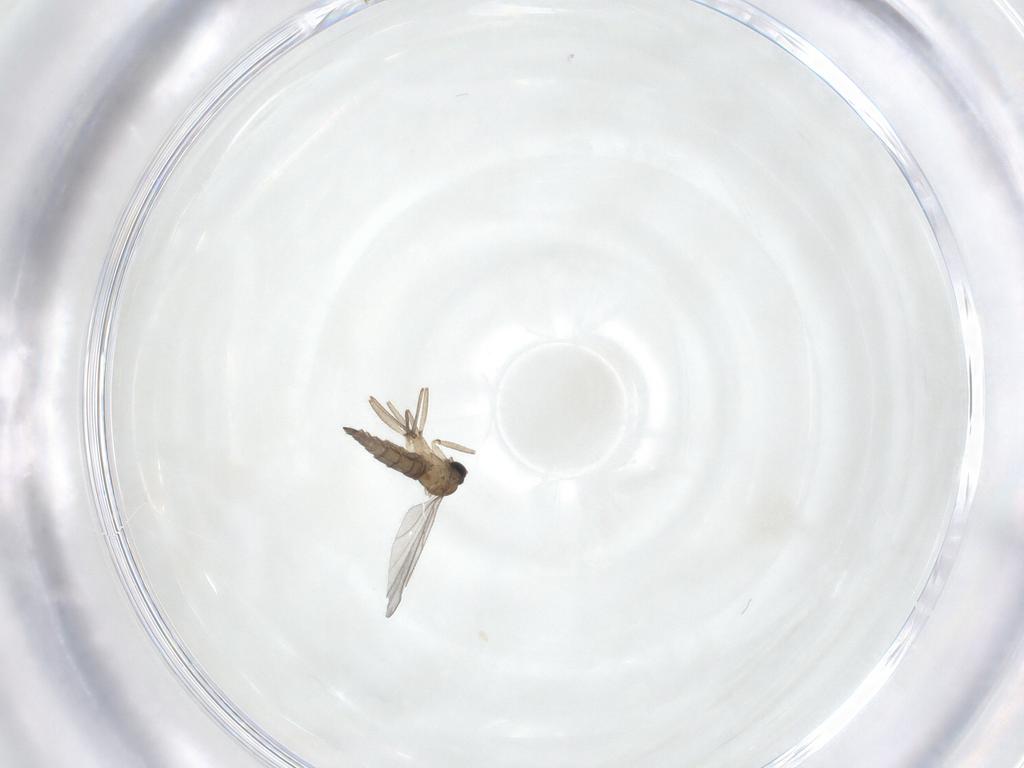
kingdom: Animalia
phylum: Arthropoda
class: Insecta
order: Diptera
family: Sciaridae
